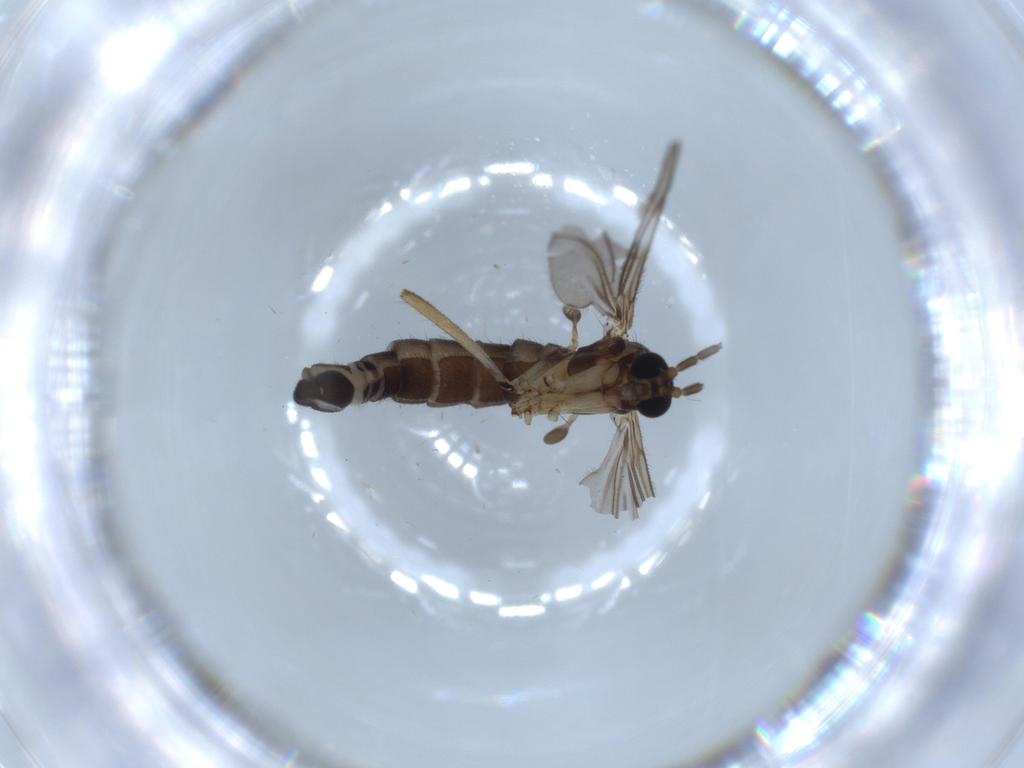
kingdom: Animalia
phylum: Arthropoda
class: Insecta
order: Diptera
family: Sciaridae
